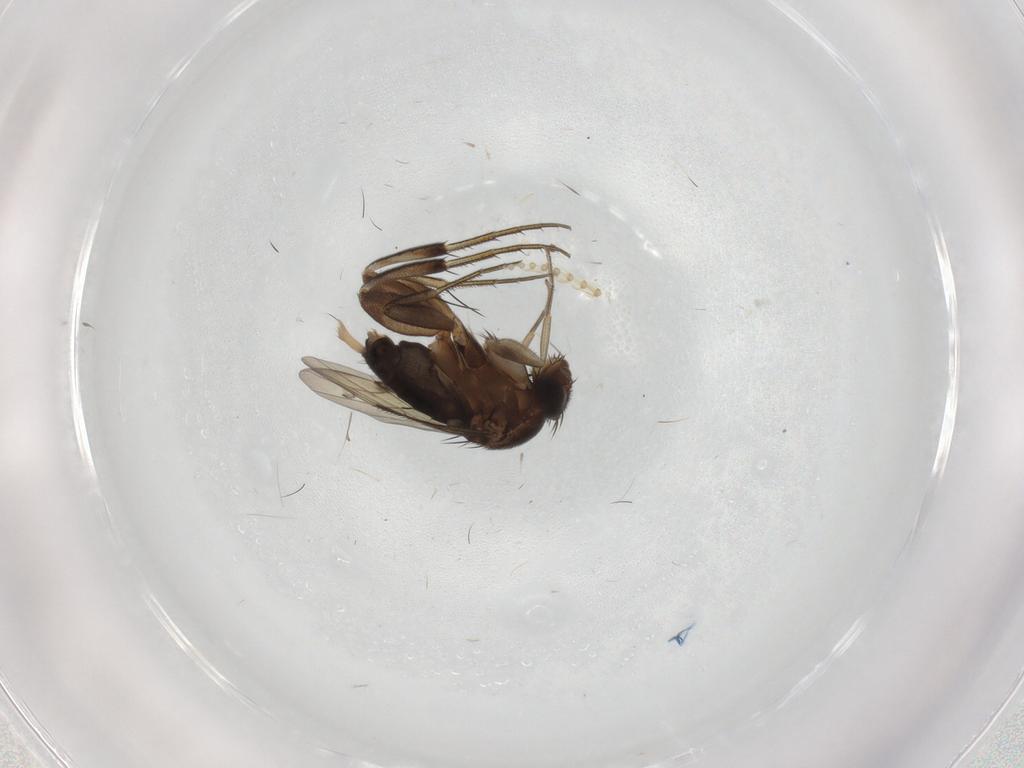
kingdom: Animalia
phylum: Arthropoda
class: Insecta
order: Diptera
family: Phoridae
